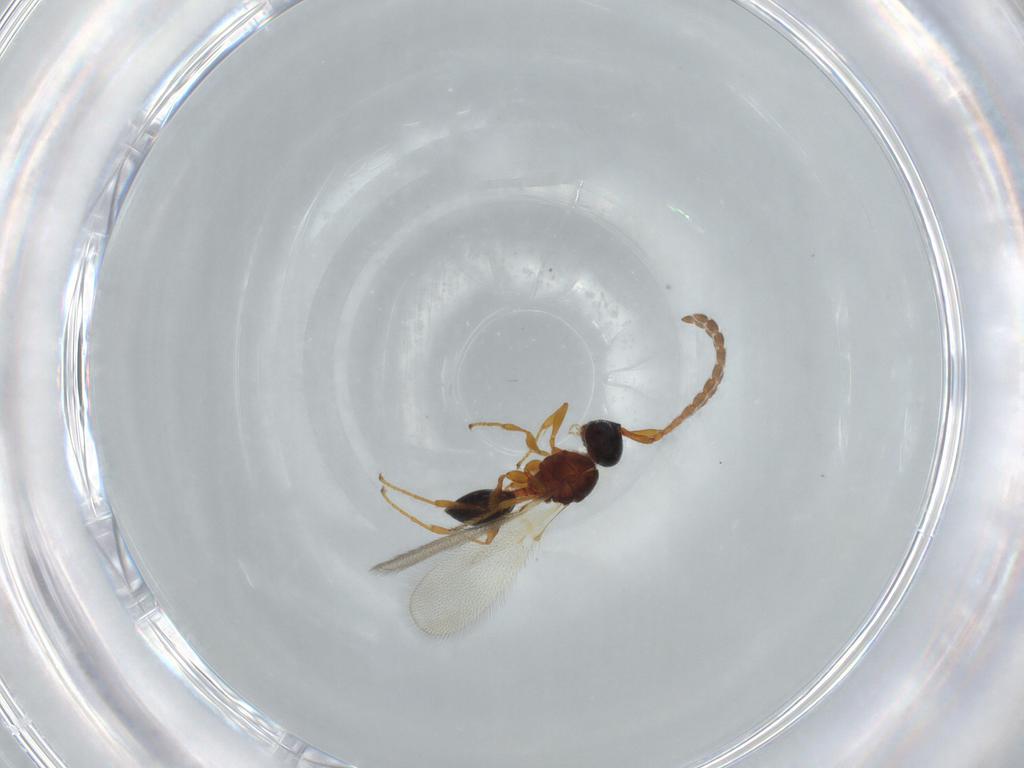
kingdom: Animalia
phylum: Arthropoda
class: Insecta
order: Hymenoptera
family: Diapriidae
